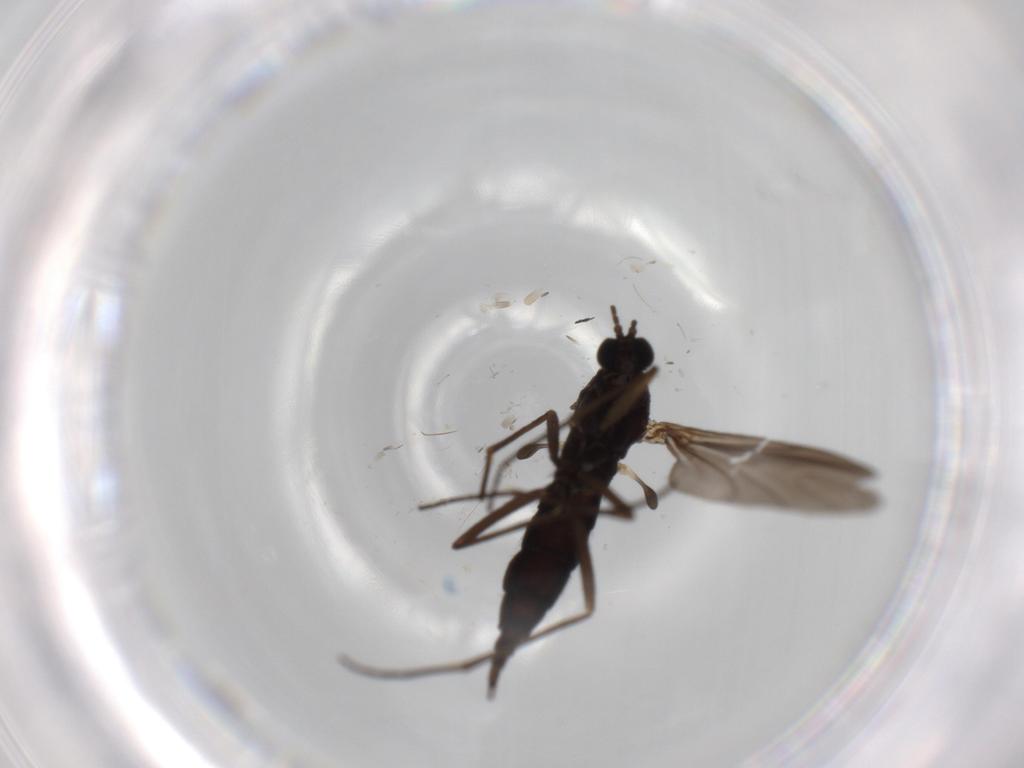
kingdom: Animalia
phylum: Arthropoda
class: Insecta
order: Diptera
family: Sciaridae
